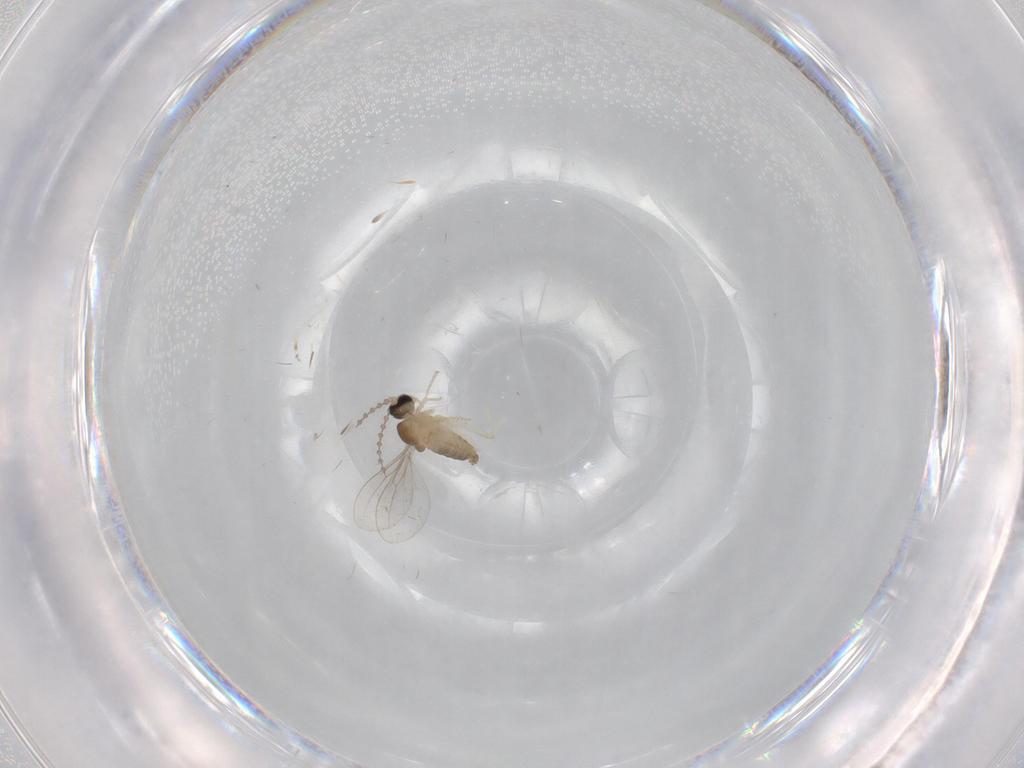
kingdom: Animalia
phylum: Arthropoda
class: Insecta
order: Diptera
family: Cecidomyiidae
